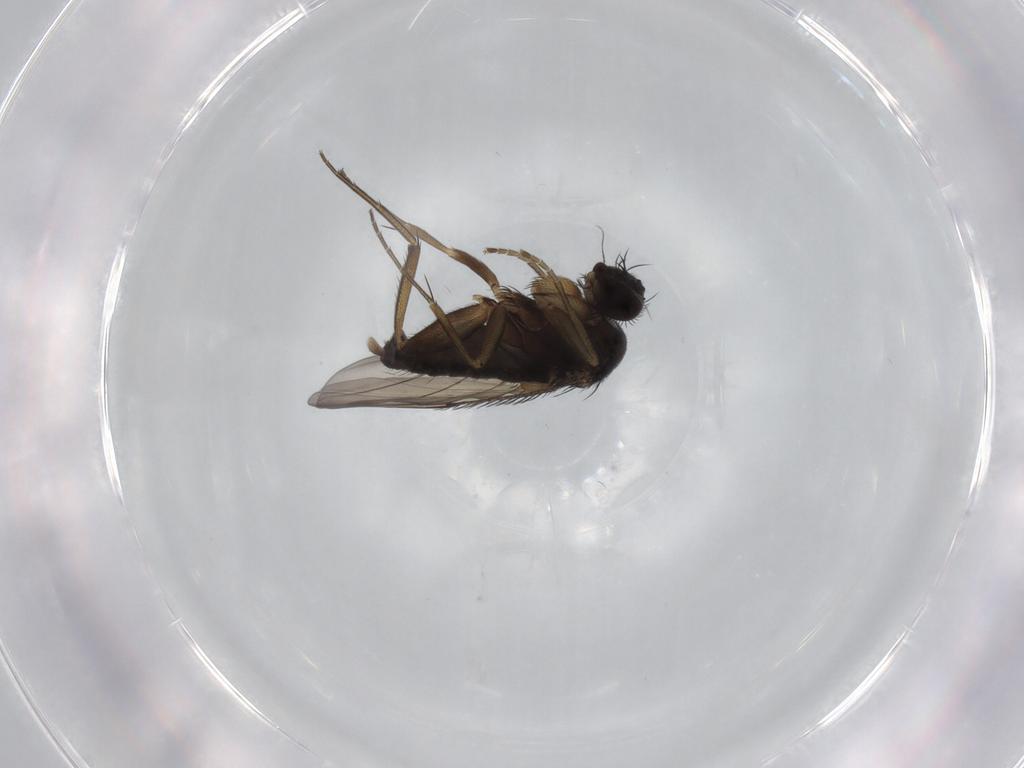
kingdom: Animalia
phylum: Arthropoda
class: Insecta
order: Diptera
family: Phoridae
